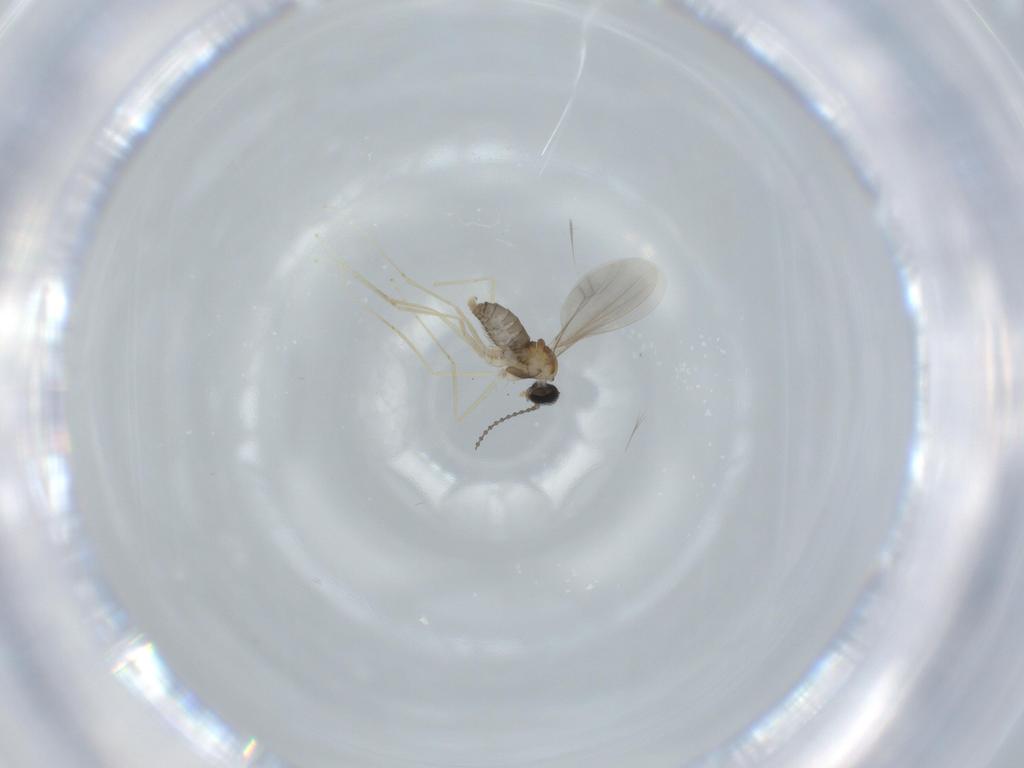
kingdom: Animalia
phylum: Arthropoda
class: Insecta
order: Diptera
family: Cecidomyiidae
